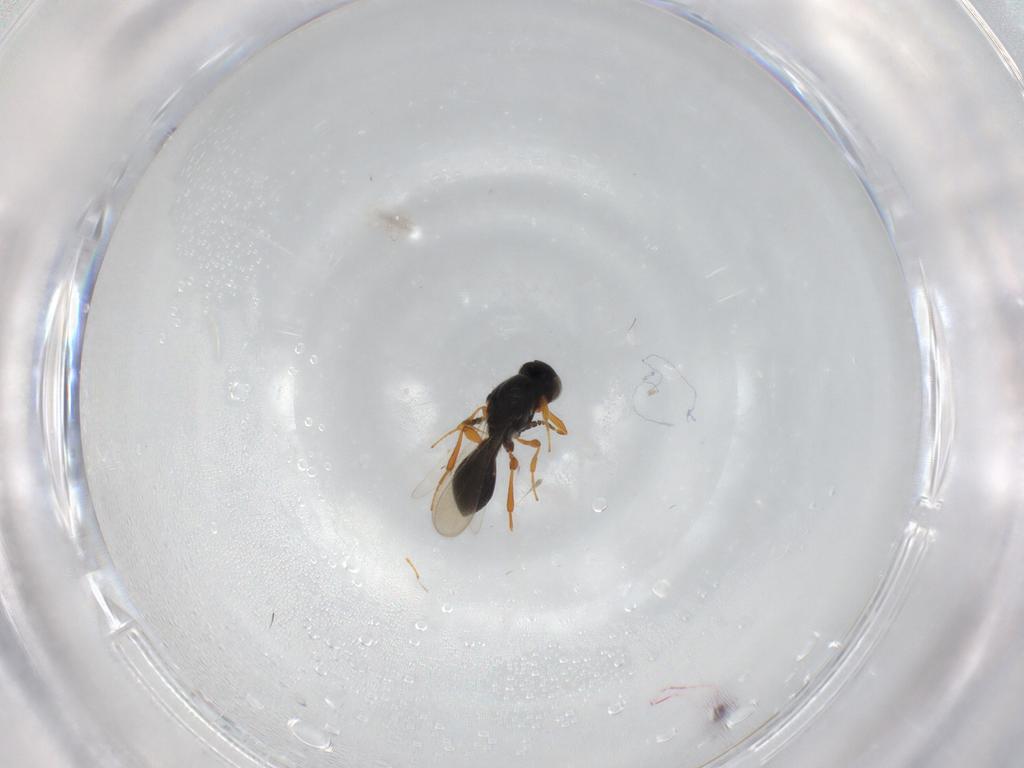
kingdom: Animalia
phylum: Arthropoda
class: Insecta
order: Hymenoptera
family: Platygastridae
